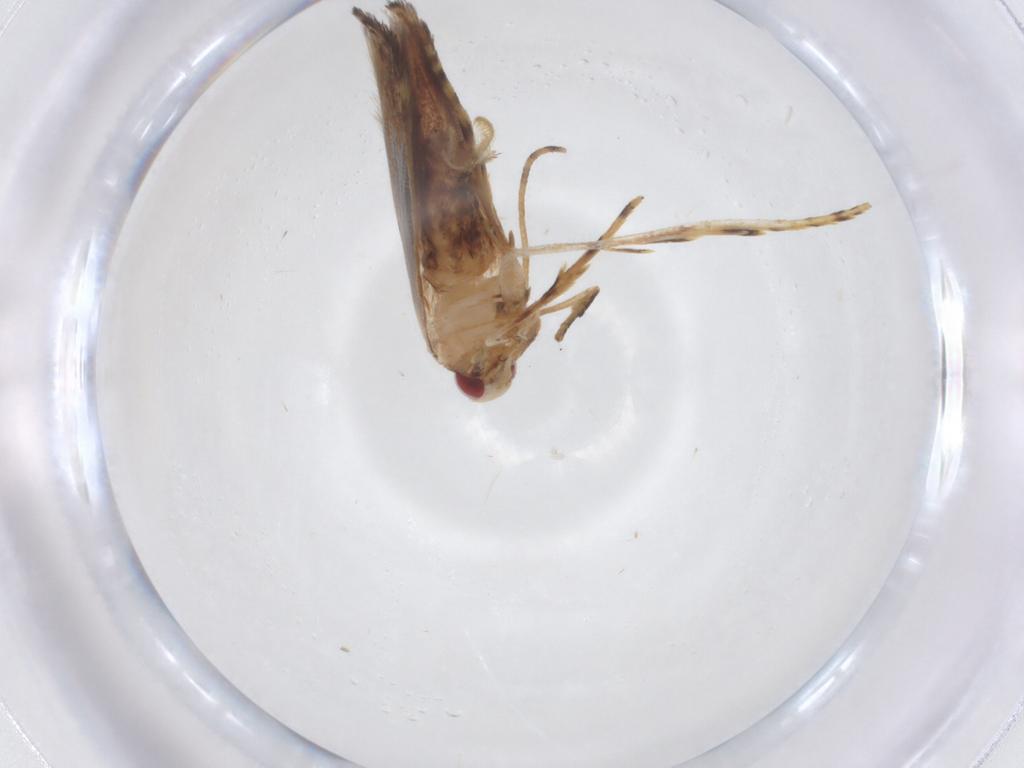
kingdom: Animalia
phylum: Arthropoda
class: Insecta
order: Lepidoptera
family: Cosmopterigidae
